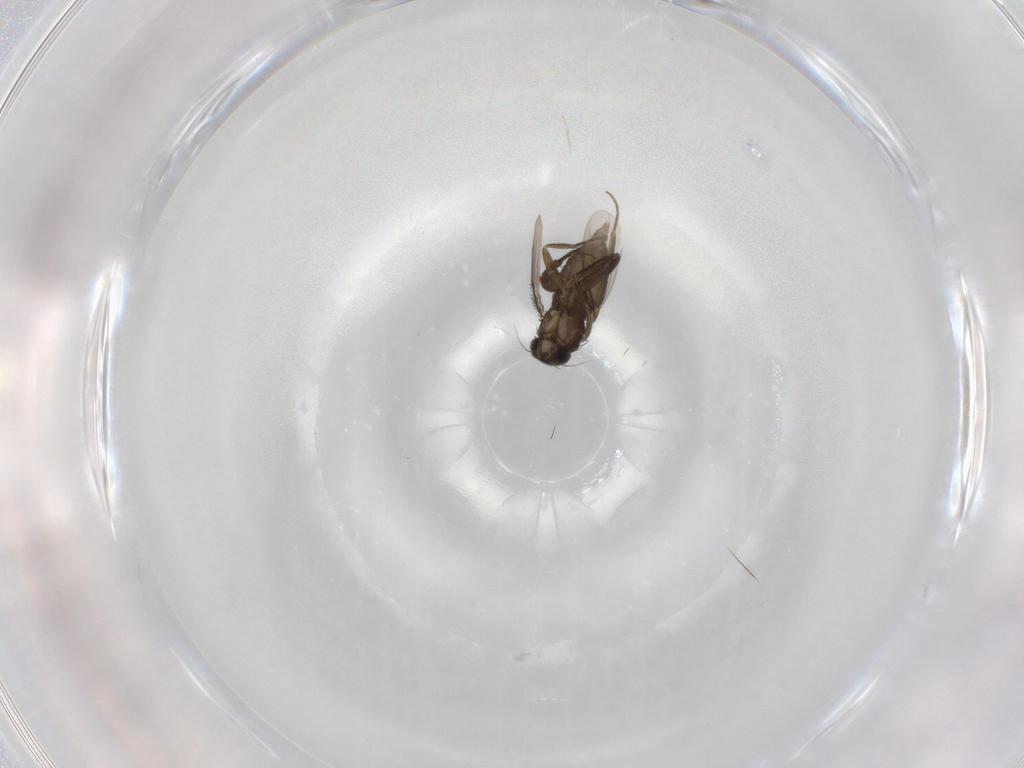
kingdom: Animalia
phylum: Arthropoda
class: Insecta
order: Diptera
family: Phoridae
